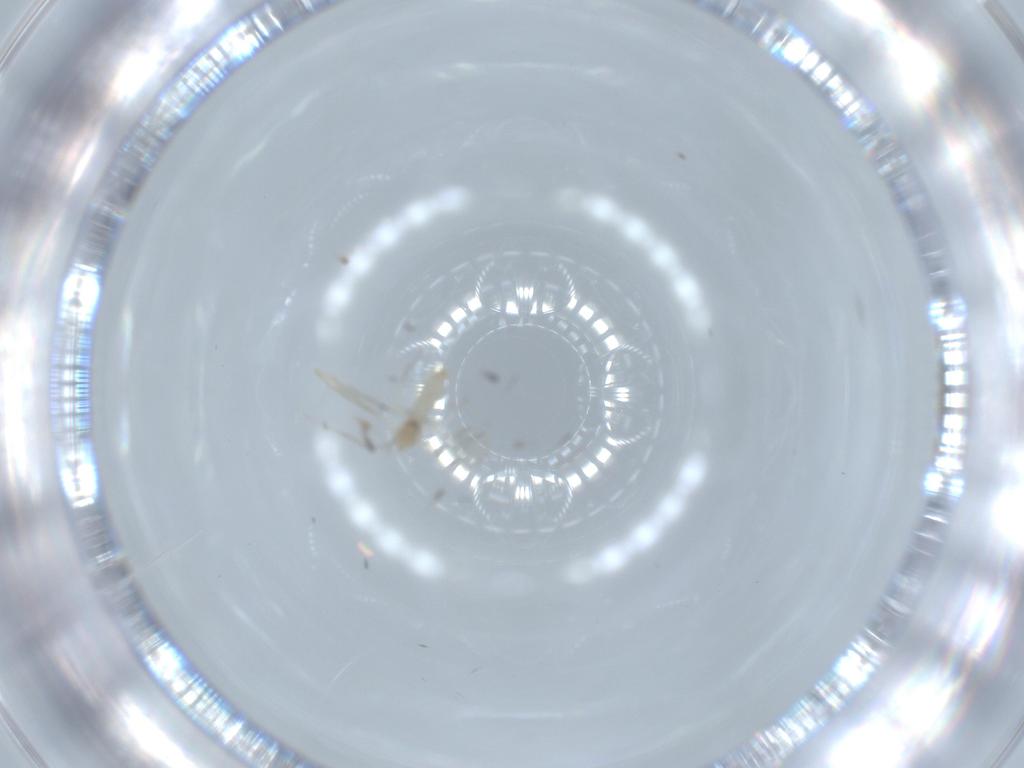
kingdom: Animalia
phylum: Arthropoda
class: Insecta
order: Diptera
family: Cecidomyiidae
